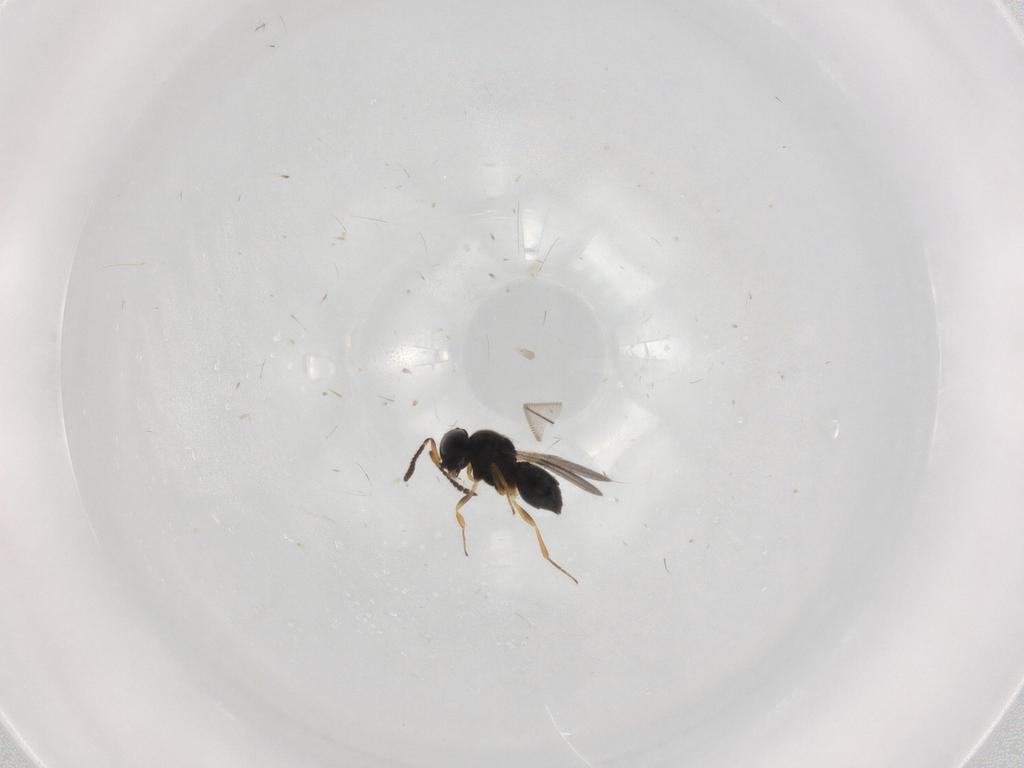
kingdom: Animalia
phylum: Arthropoda
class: Insecta
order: Hymenoptera
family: Scelionidae
